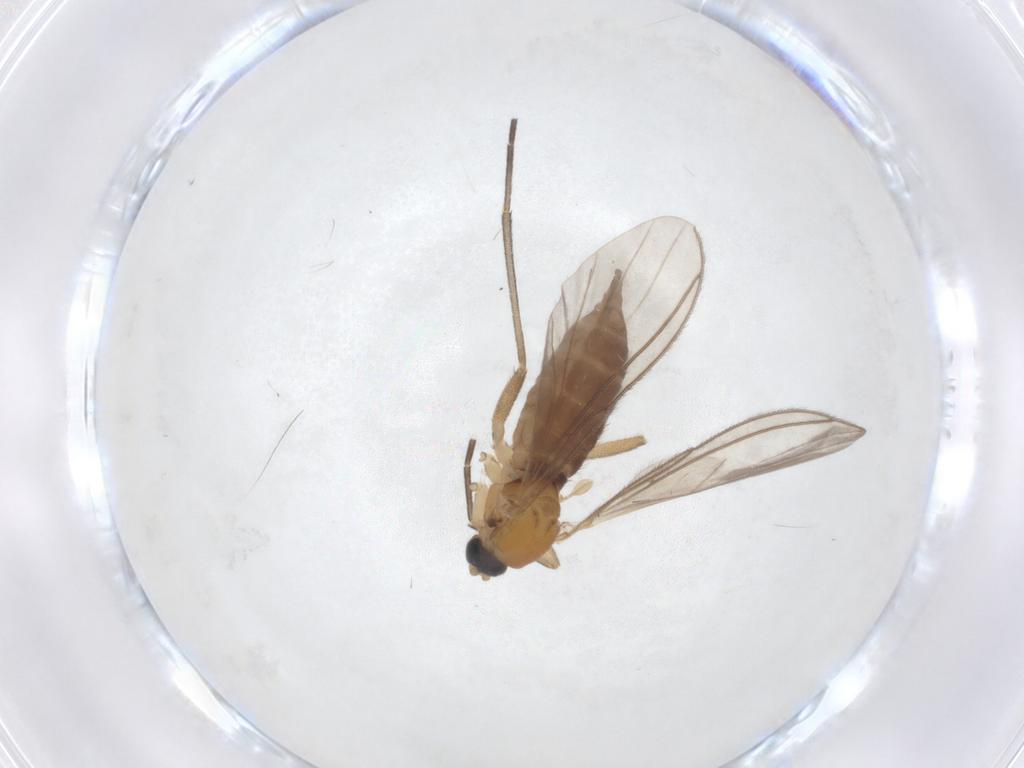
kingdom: Animalia
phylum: Arthropoda
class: Insecta
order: Diptera
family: Sciaridae
